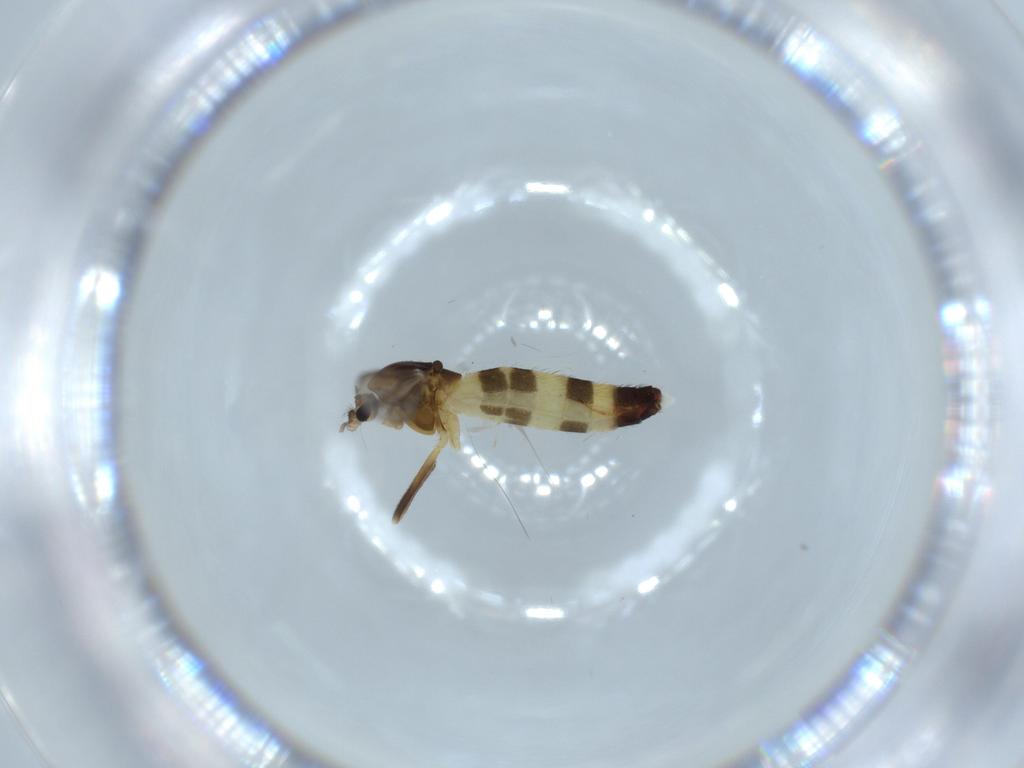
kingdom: Animalia
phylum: Arthropoda
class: Insecta
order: Diptera
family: Chironomidae
